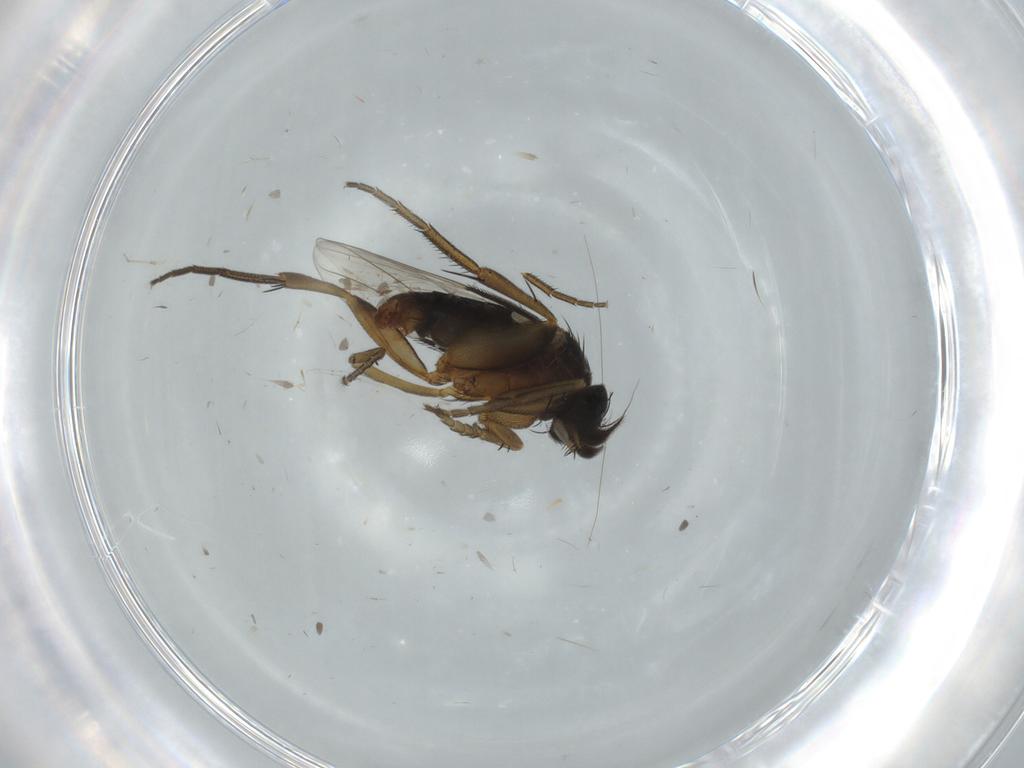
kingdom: Animalia
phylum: Arthropoda
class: Insecta
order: Diptera
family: Phoridae
